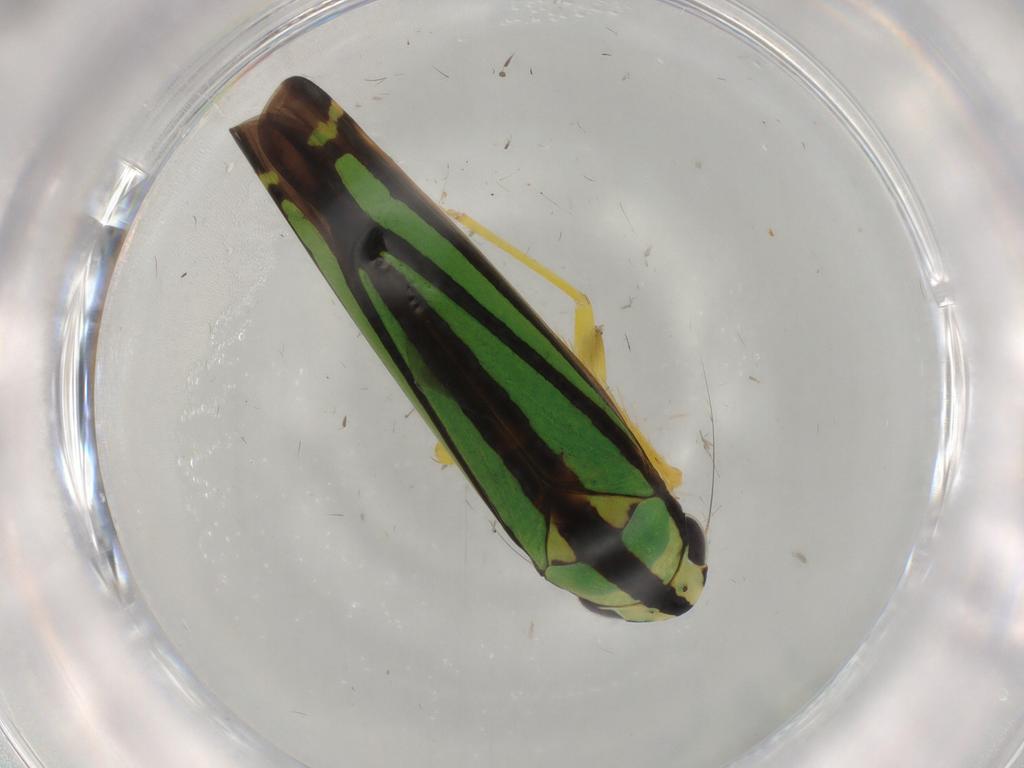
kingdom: Animalia
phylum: Arthropoda
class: Insecta
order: Hemiptera
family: Cicadellidae
